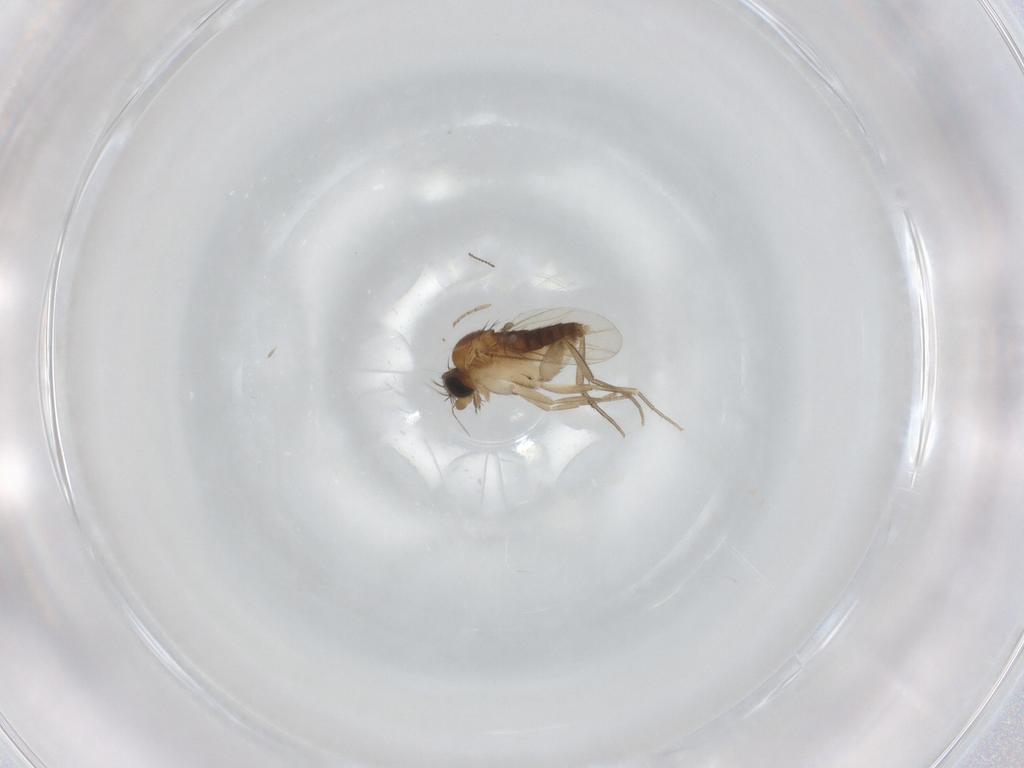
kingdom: Animalia
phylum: Arthropoda
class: Insecta
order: Diptera
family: Phoridae
